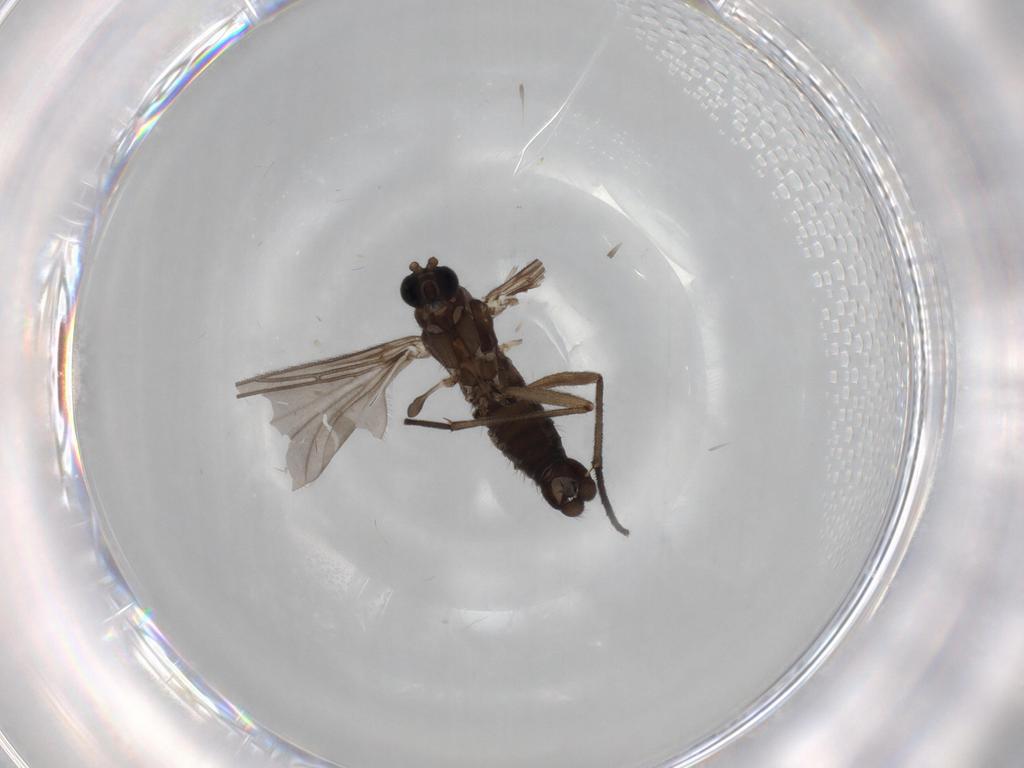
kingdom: Animalia
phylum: Arthropoda
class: Insecta
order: Diptera
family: Sciaridae
